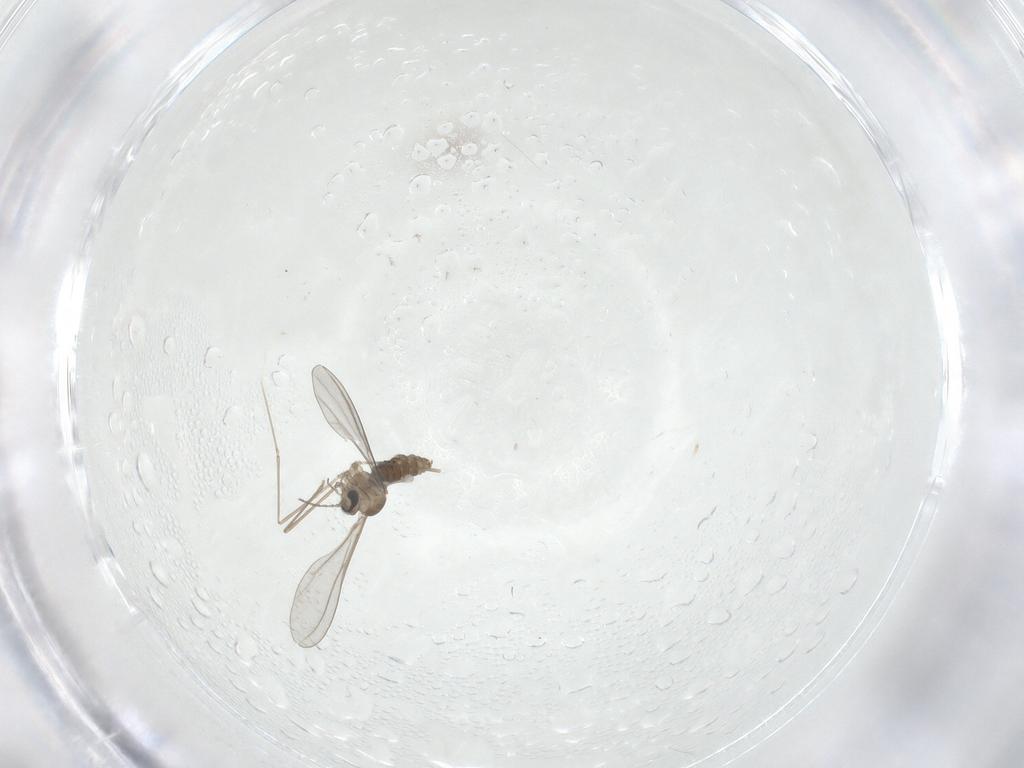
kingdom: Animalia
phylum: Arthropoda
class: Insecta
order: Diptera
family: Cecidomyiidae
